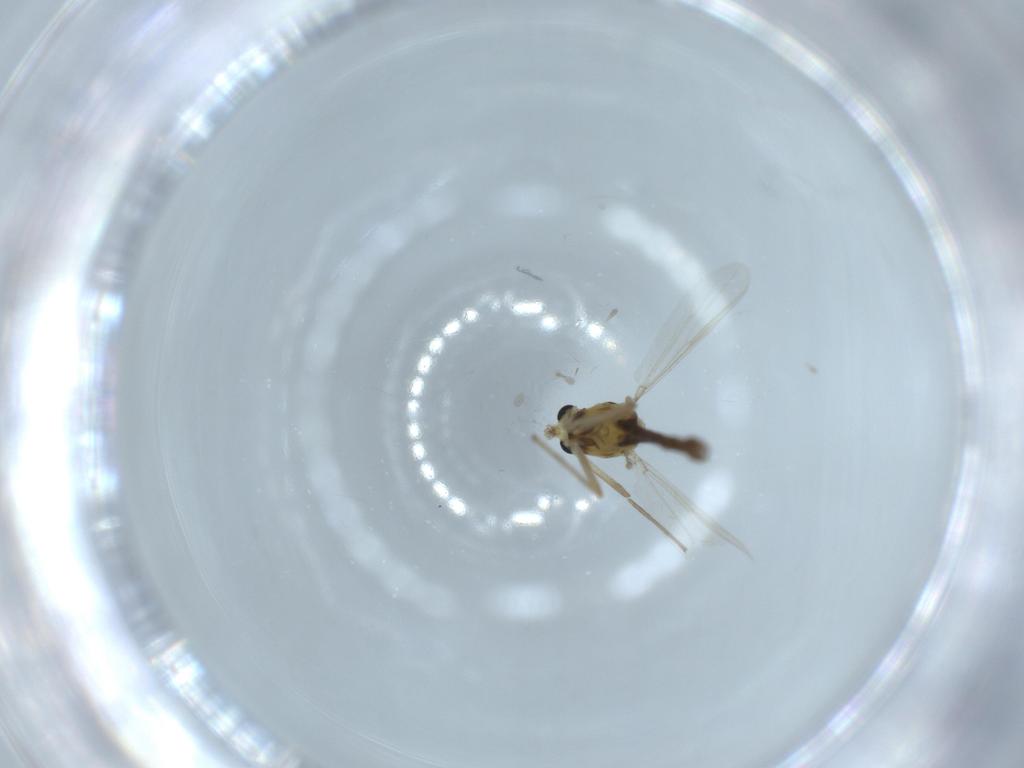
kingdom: Animalia
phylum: Arthropoda
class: Insecta
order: Diptera
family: Chironomidae
